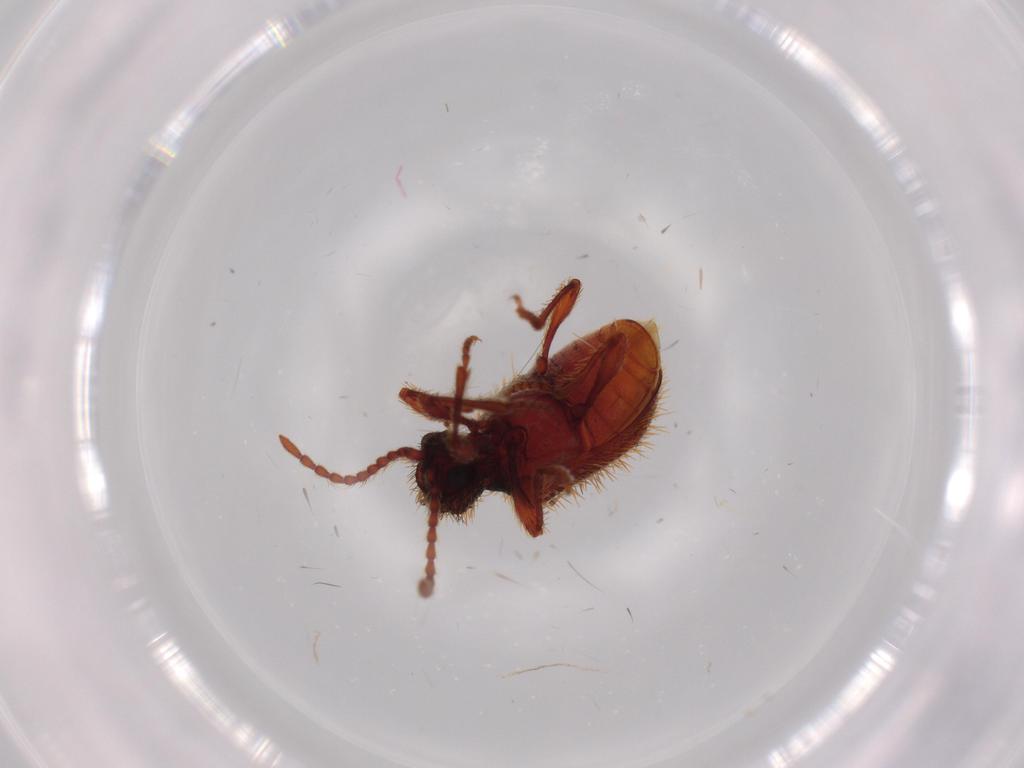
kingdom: Animalia
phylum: Arthropoda
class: Insecta
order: Coleoptera
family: Ptinidae
